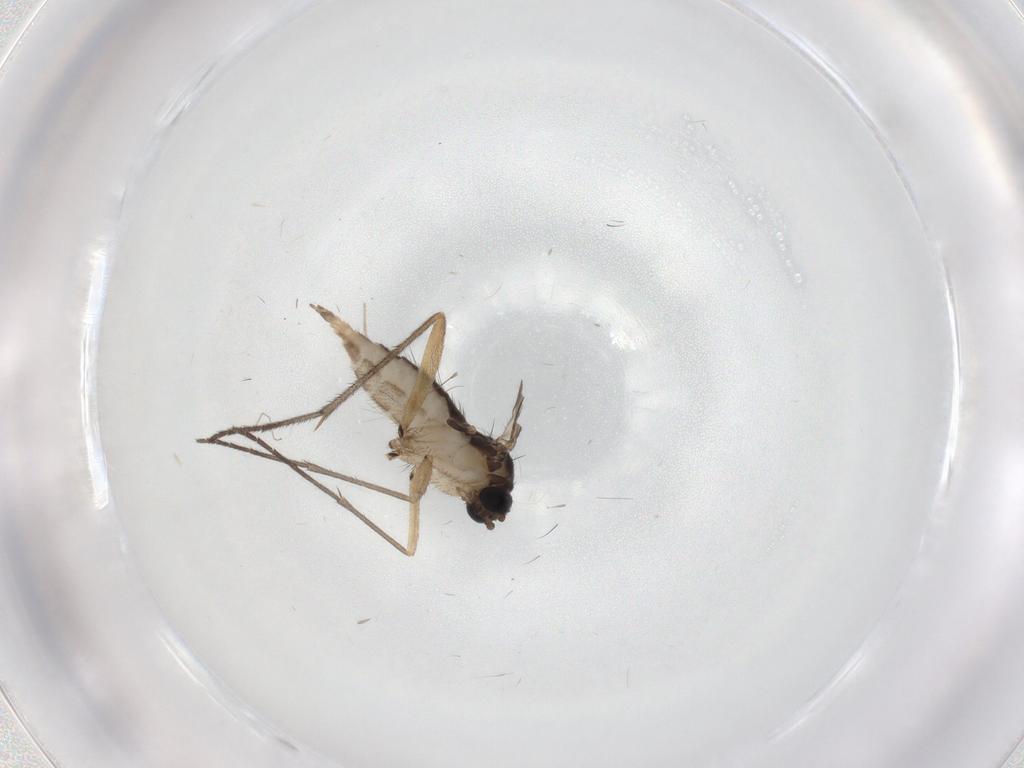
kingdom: Animalia
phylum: Arthropoda
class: Insecta
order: Diptera
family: Sciaridae
